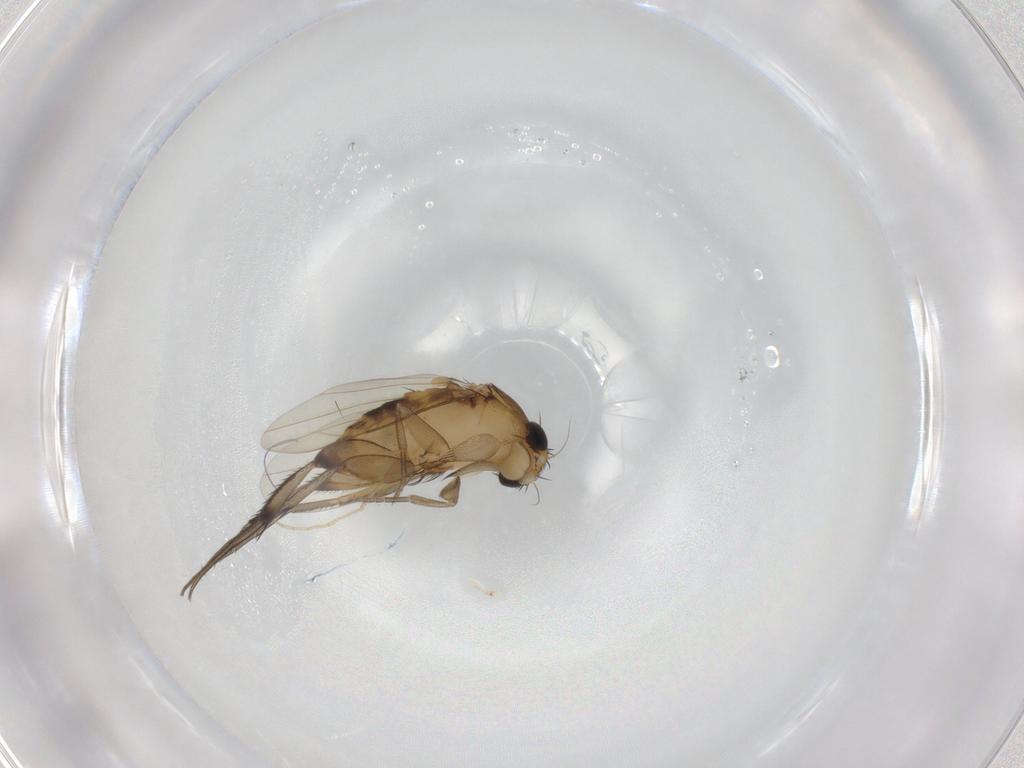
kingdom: Animalia
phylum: Arthropoda
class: Insecta
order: Diptera
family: Phoridae
